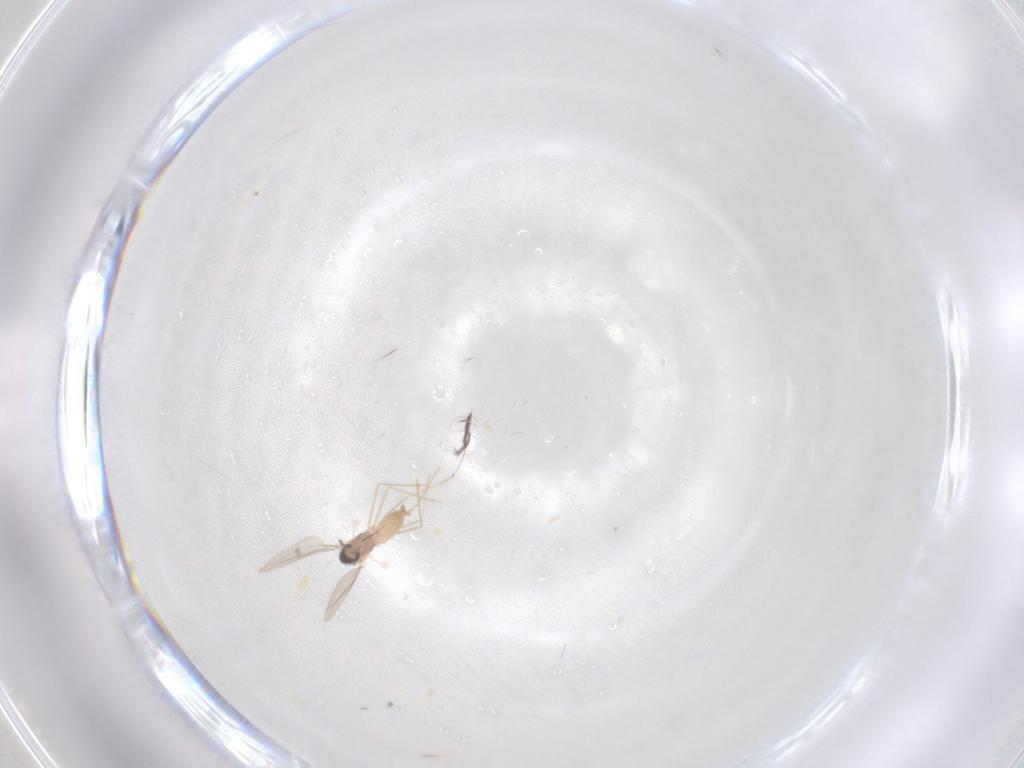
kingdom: Animalia
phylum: Arthropoda
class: Insecta
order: Diptera
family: Cecidomyiidae
